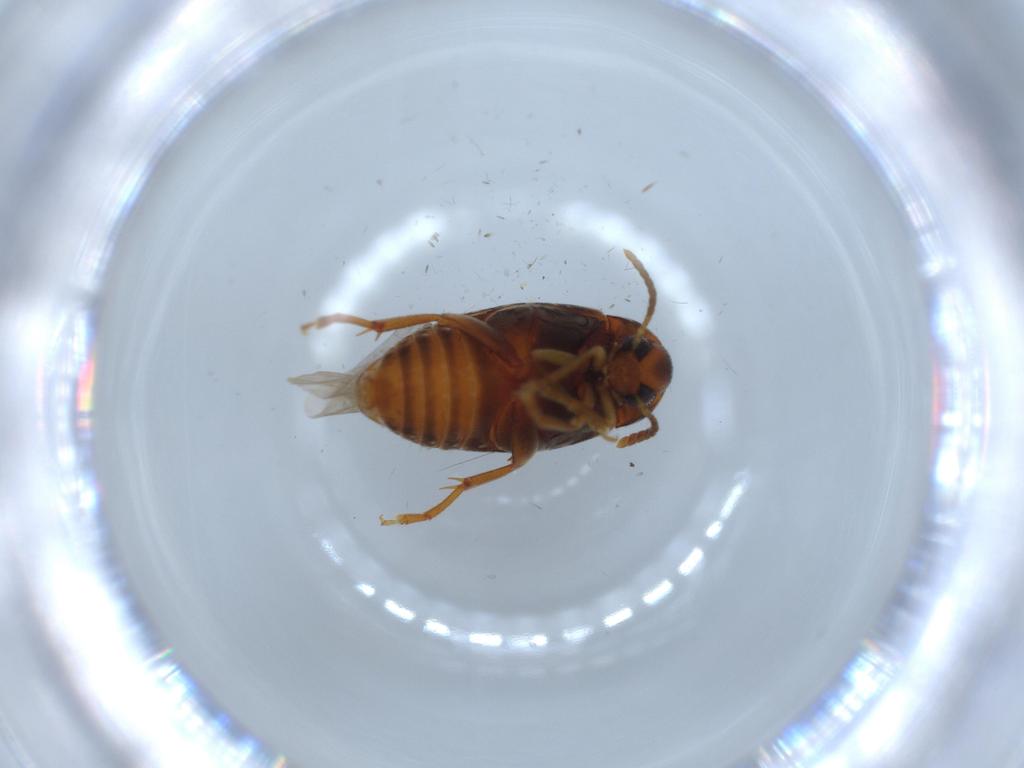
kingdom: Animalia
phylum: Arthropoda
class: Insecta
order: Coleoptera
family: Chrysomelidae
